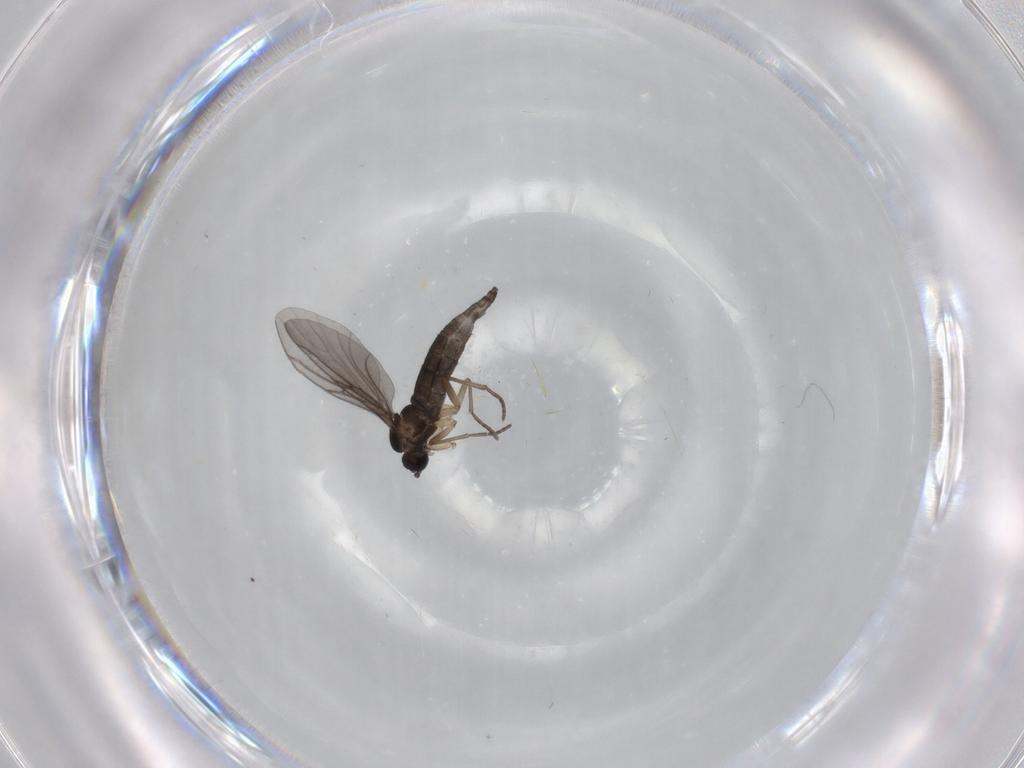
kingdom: Animalia
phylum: Arthropoda
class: Insecta
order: Diptera
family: Sciaridae
